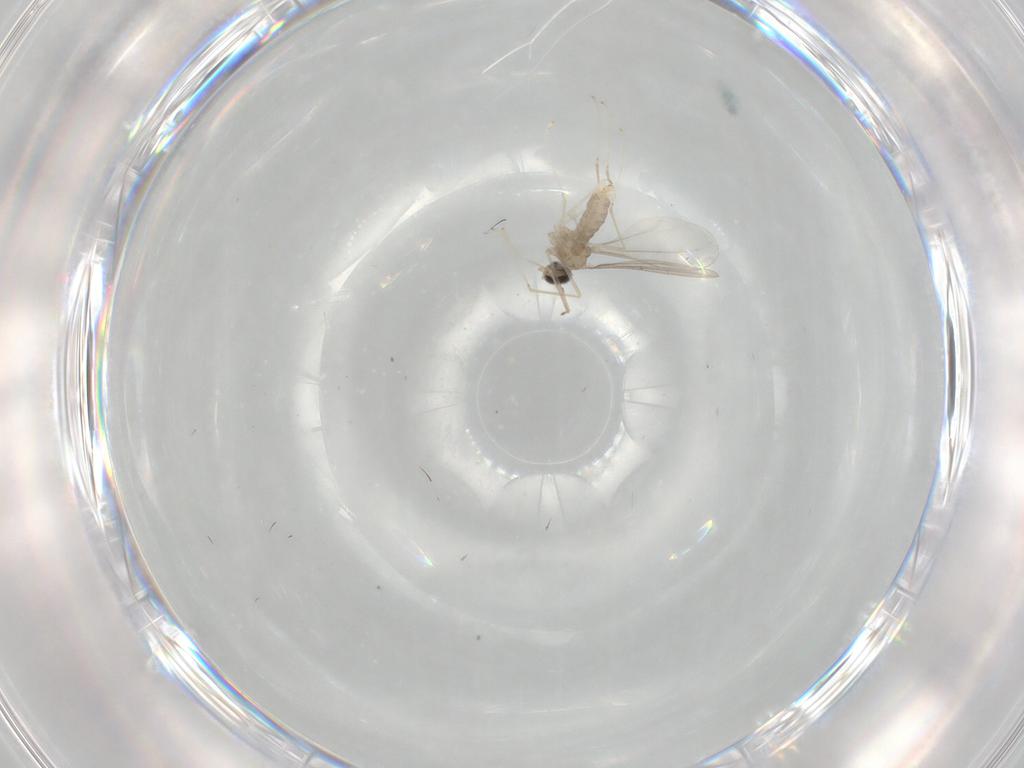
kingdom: Animalia
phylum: Arthropoda
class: Insecta
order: Diptera
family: Cecidomyiidae
